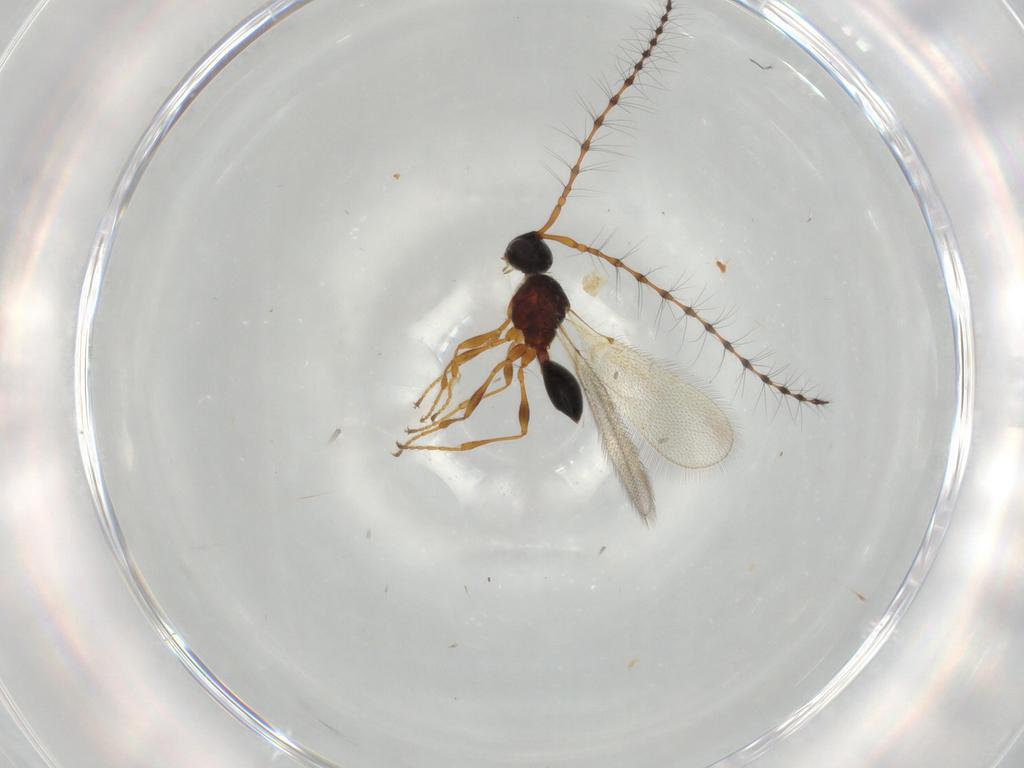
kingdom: Animalia
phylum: Arthropoda
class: Insecta
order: Hymenoptera
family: Diapriidae
